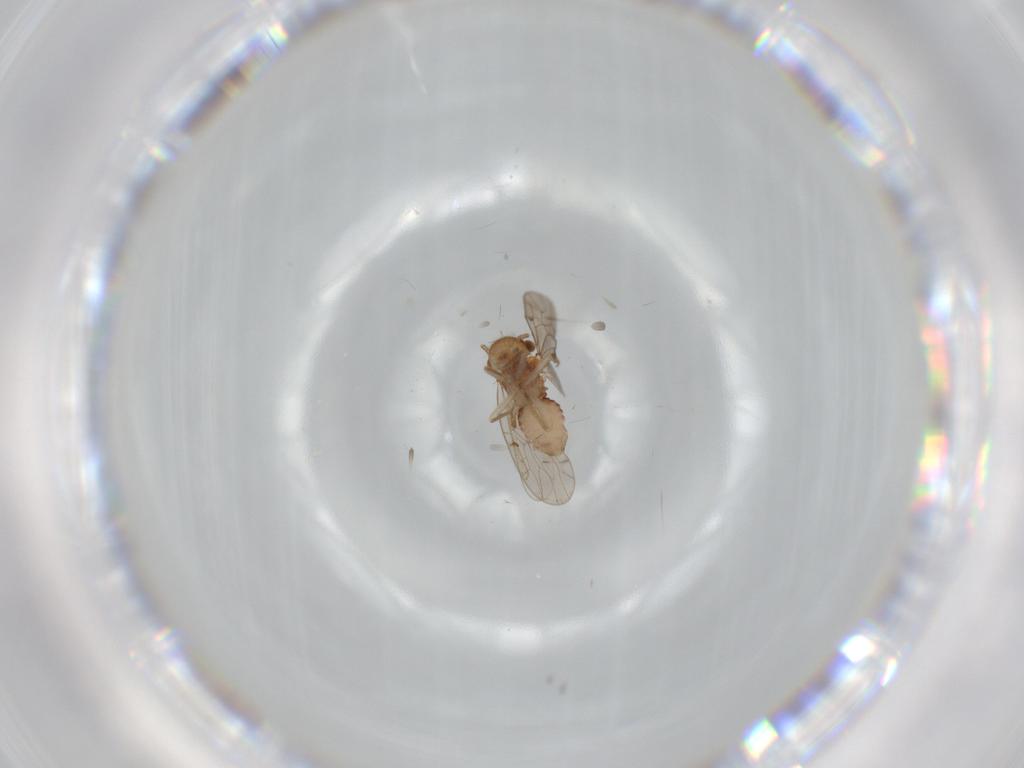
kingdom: Animalia
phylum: Arthropoda
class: Insecta
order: Psocodea
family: Ectopsocidae
